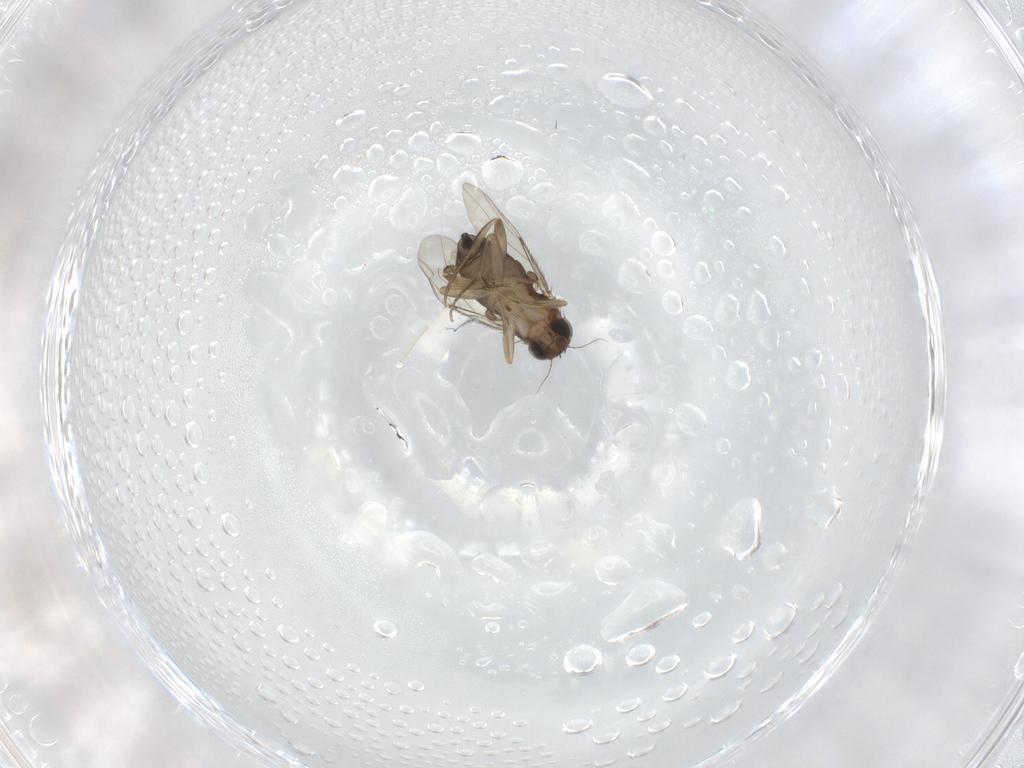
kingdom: Animalia
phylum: Arthropoda
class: Insecta
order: Diptera
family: Phoridae
